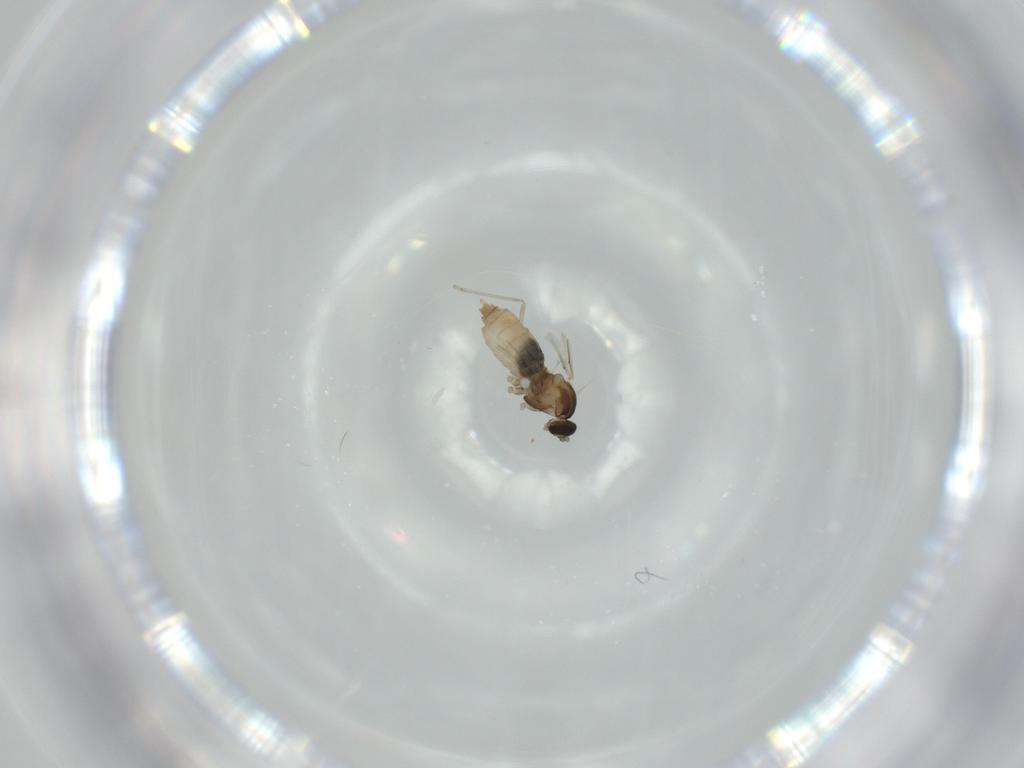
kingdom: Animalia
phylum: Arthropoda
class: Insecta
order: Diptera
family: Cecidomyiidae
